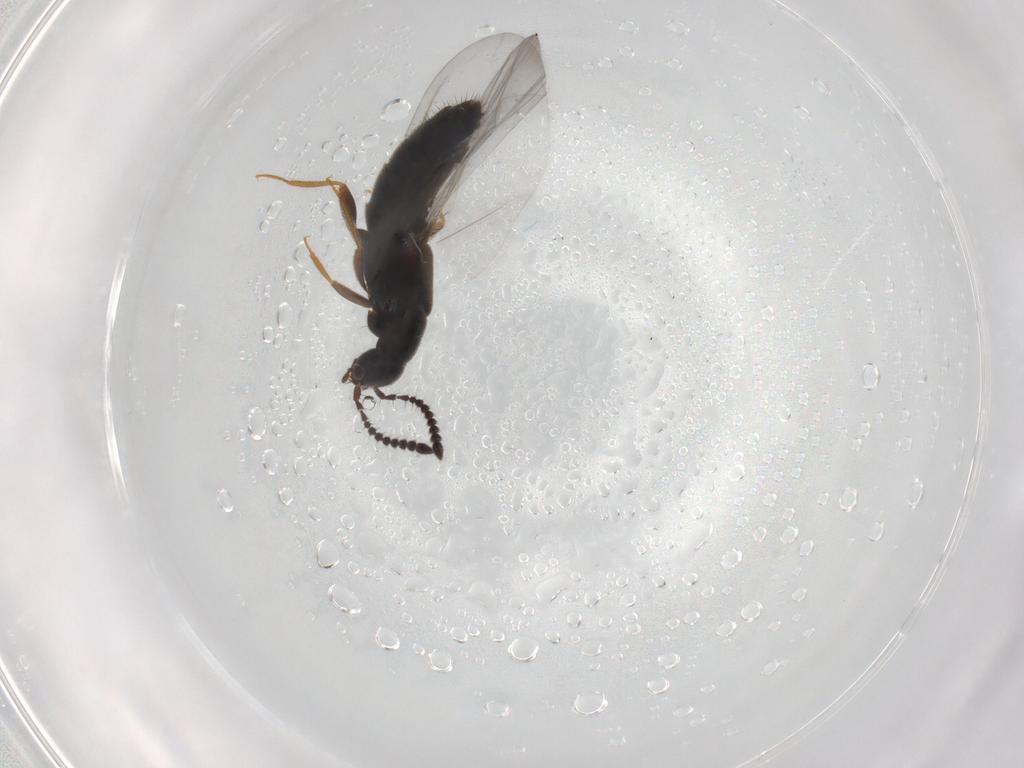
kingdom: Animalia
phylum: Arthropoda
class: Insecta
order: Coleoptera
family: Staphylinidae
